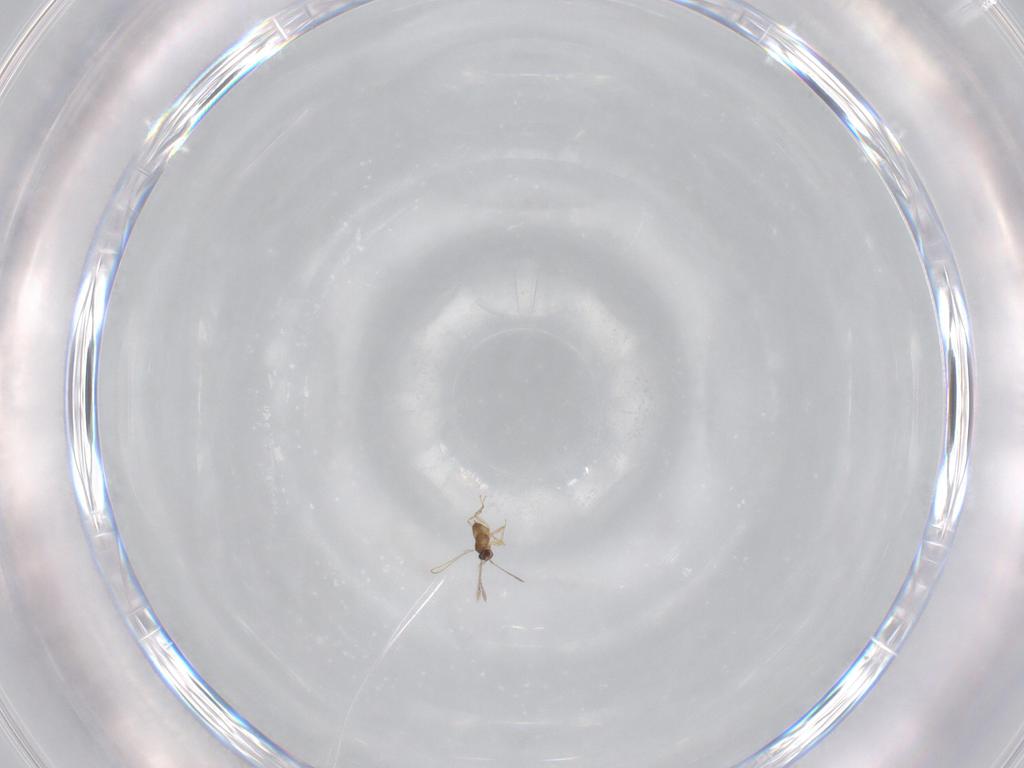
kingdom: Animalia
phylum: Arthropoda
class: Insecta
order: Hymenoptera
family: Mymaridae
